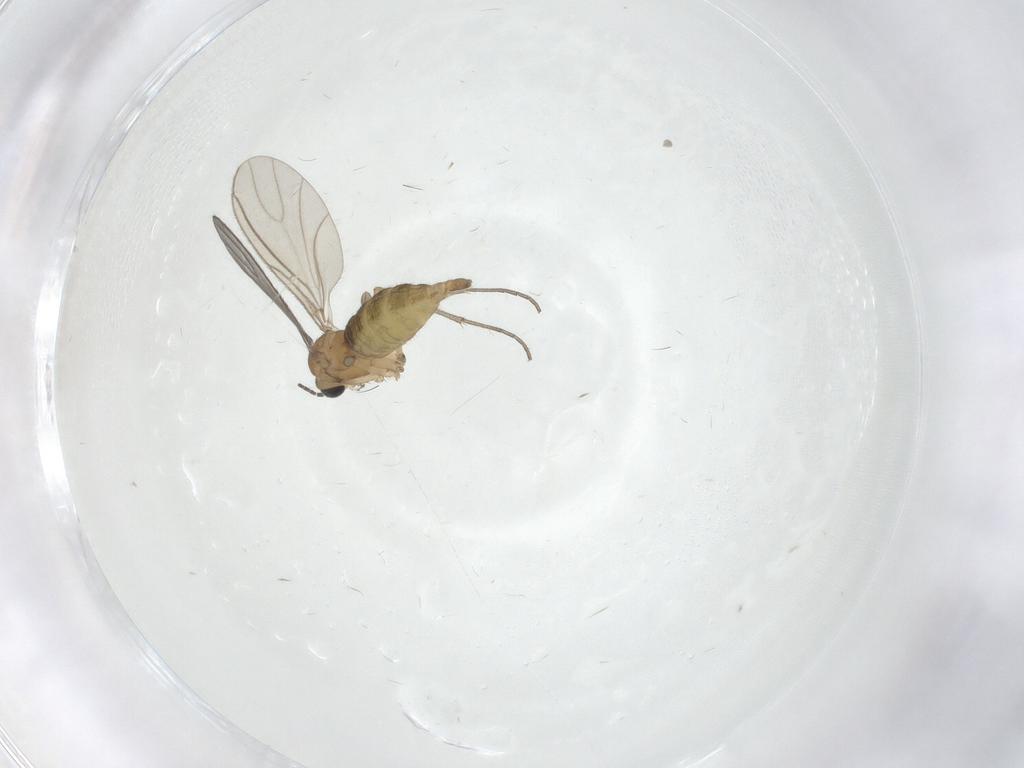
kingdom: Animalia
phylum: Arthropoda
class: Insecta
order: Diptera
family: Sciaridae
